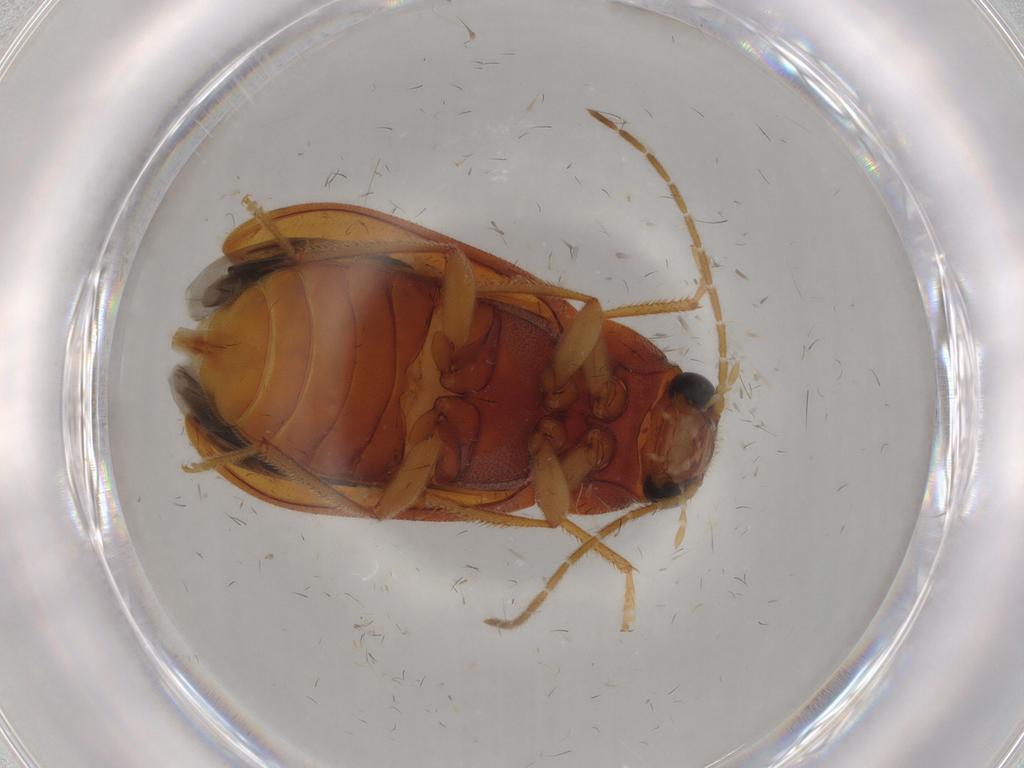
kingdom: Animalia
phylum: Arthropoda
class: Insecta
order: Coleoptera
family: Ptilodactylidae
